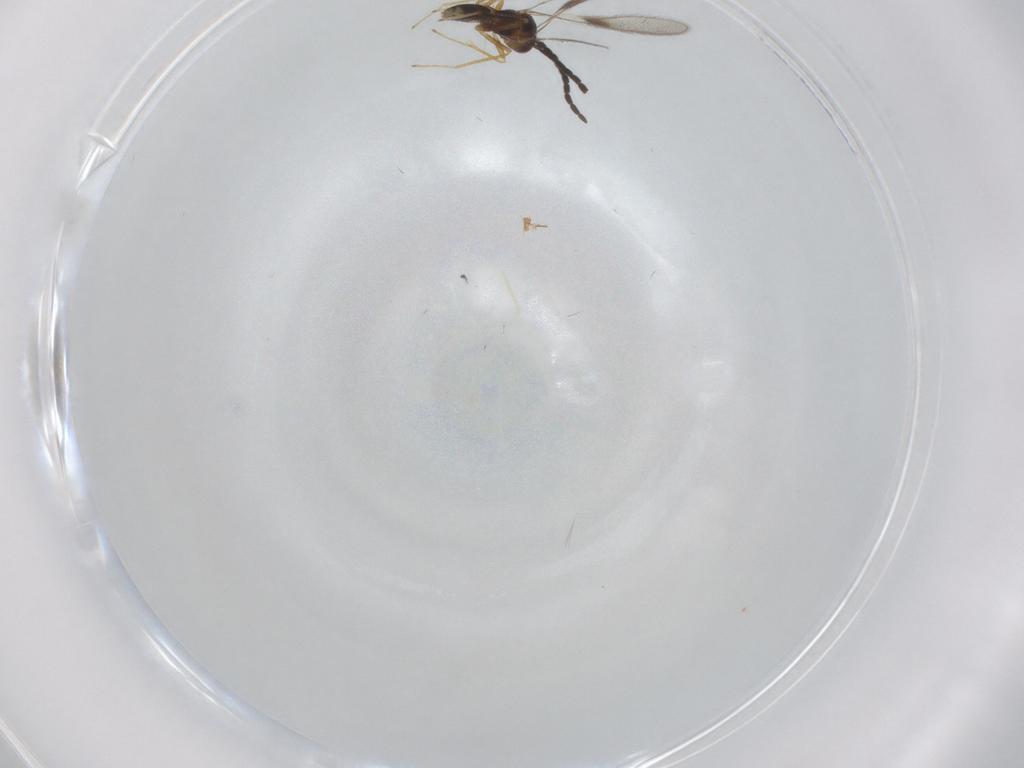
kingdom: Animalia
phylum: Arthropoda
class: Insecta
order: Hymenoptera
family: Mymaridae
